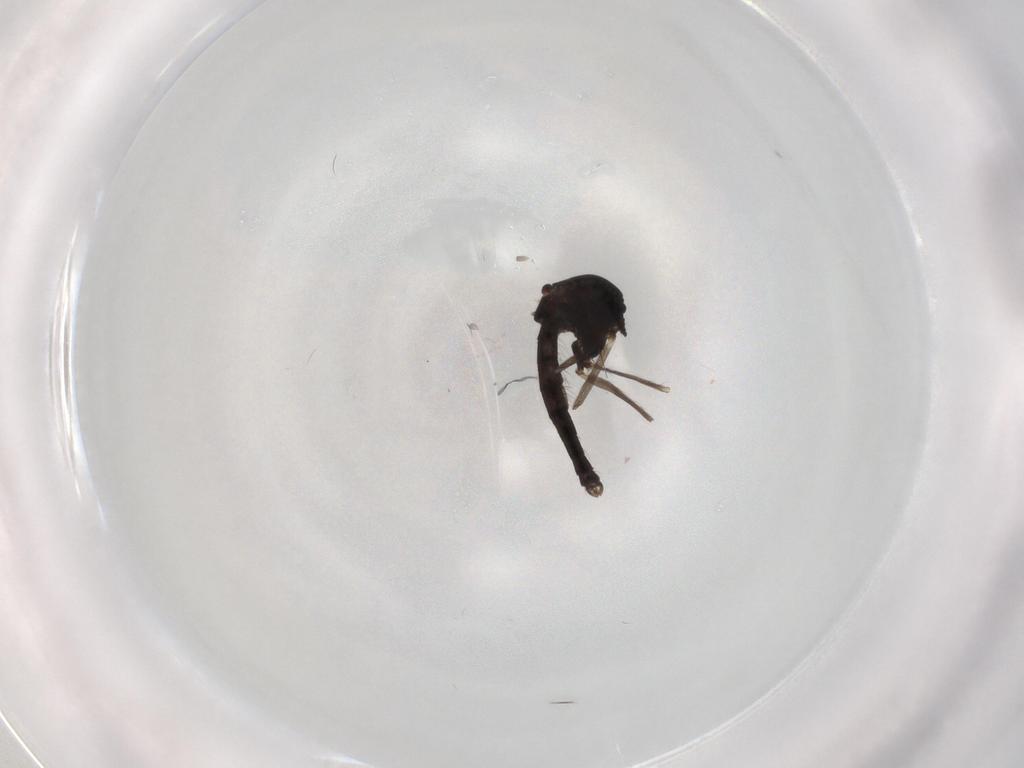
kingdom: Animalia
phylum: Arthropoda
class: Insecta
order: Diptera
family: Chironomidae
